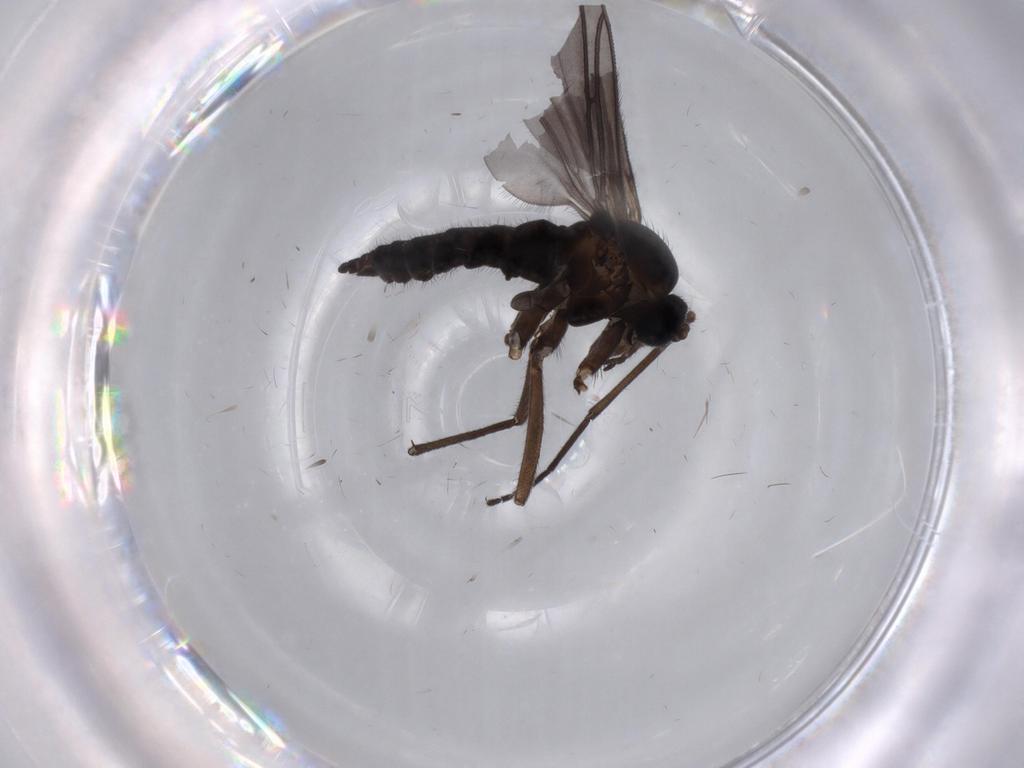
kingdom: Animalia
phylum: Arthropoda
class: Insecta
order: Diptera
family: Sciaridae
